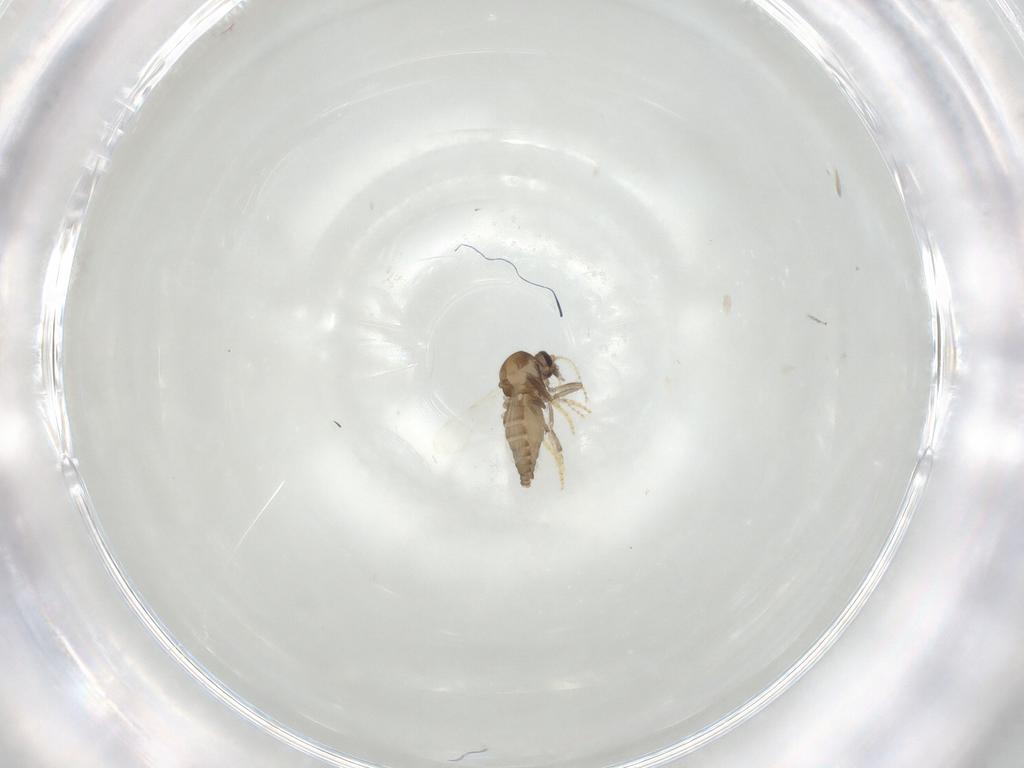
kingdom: Animalia
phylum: Arthropoda
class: Insecta
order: Diptera
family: Ceratopogonidae
